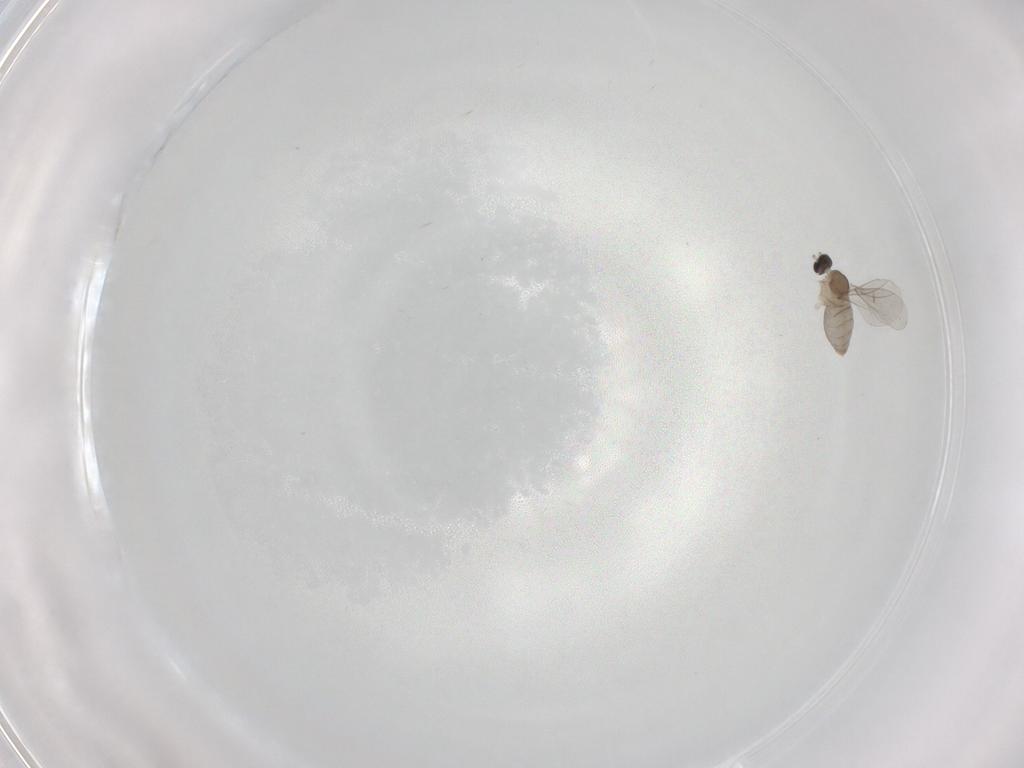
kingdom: Animalia
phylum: Arthropoda
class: Insecta
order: Diptera
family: Cecidomyiidae
